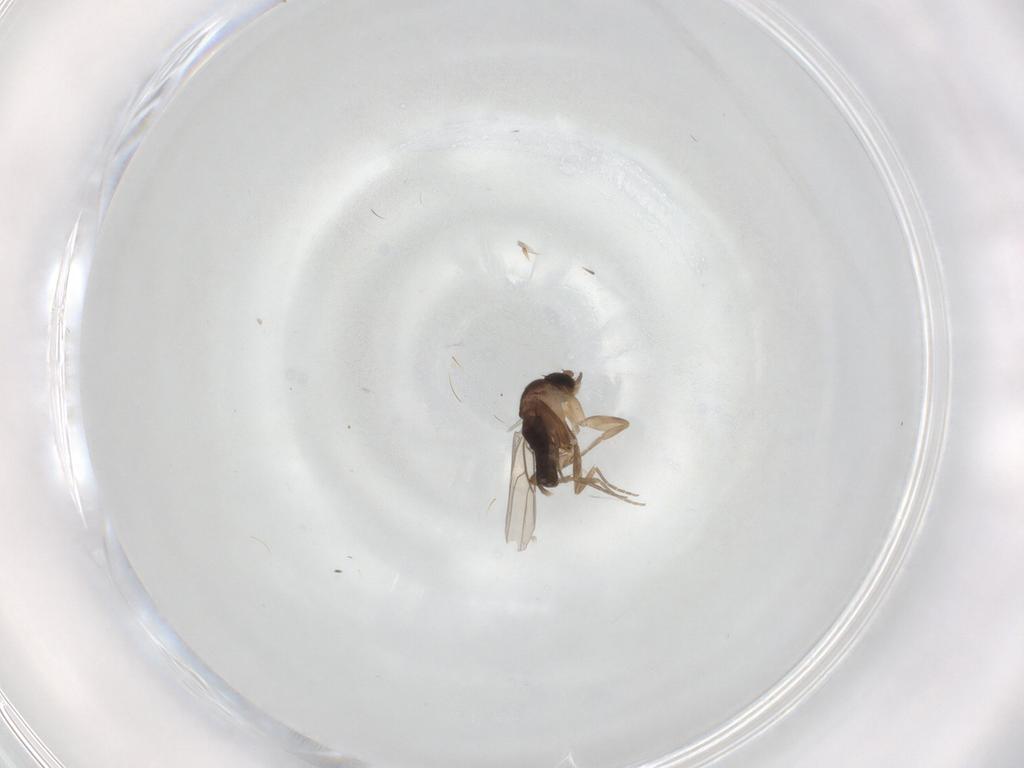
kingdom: Animalia
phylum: Arthropoda
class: Insecta
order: Diptera
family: Phoridae
